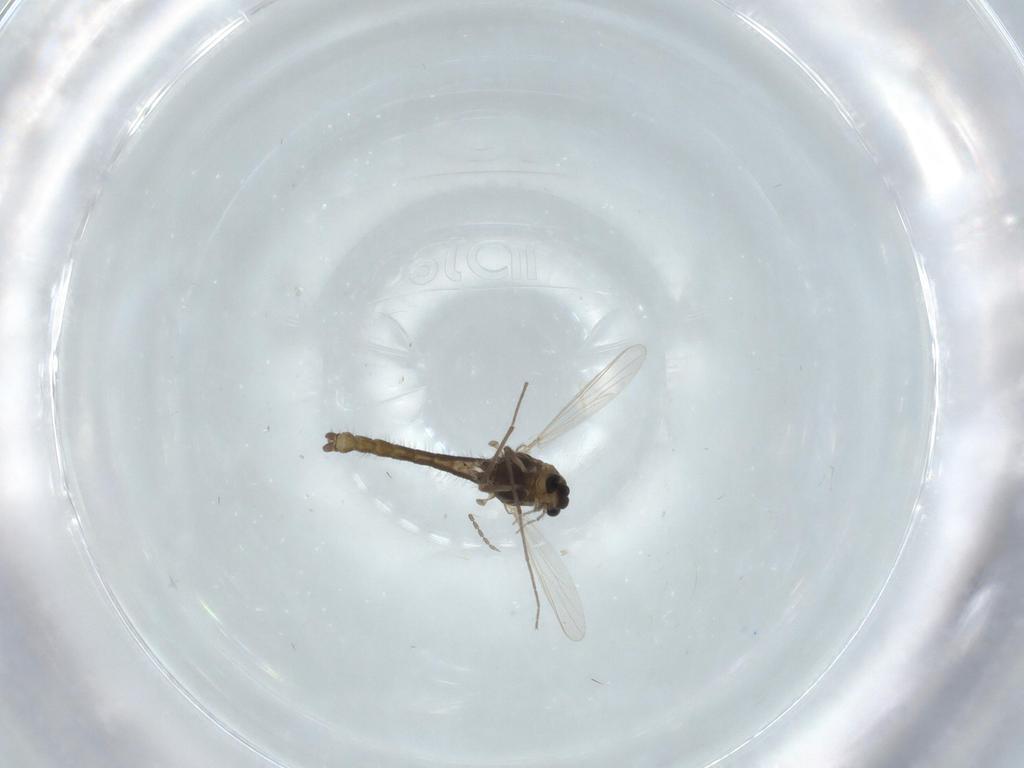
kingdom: Animalia
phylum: Arthropoda
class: Insecta
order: Diptera
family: Chironomidae
